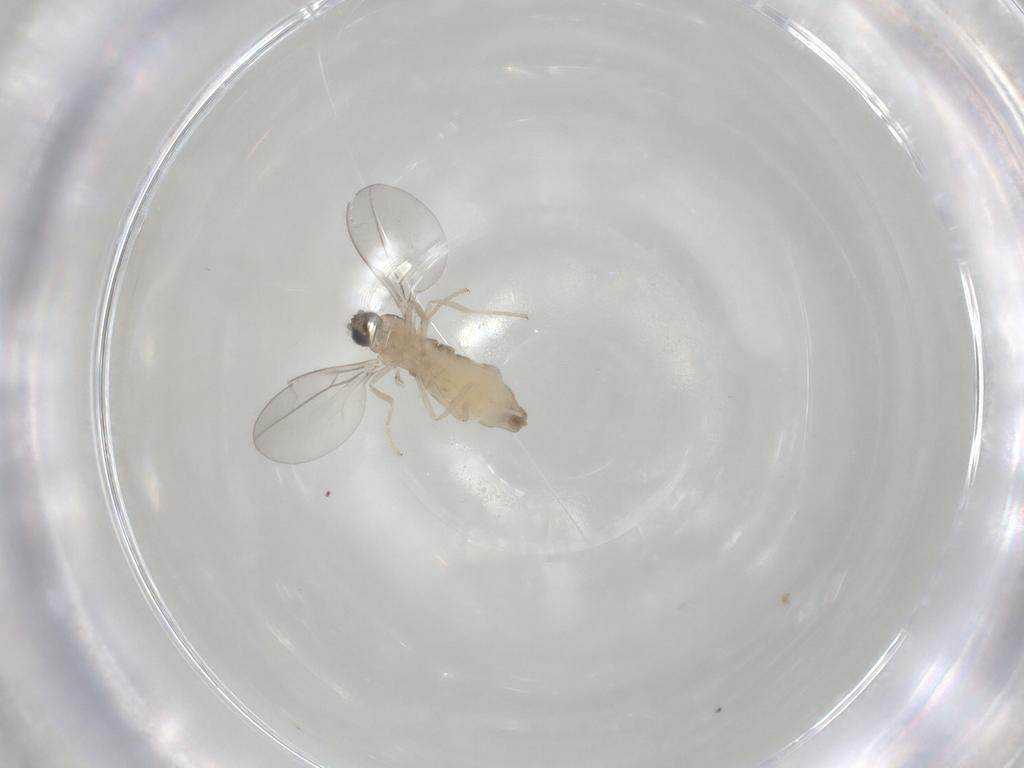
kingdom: Animalia
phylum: Arthropoda
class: Insecta
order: Diptera
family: Cecidomyiidae
